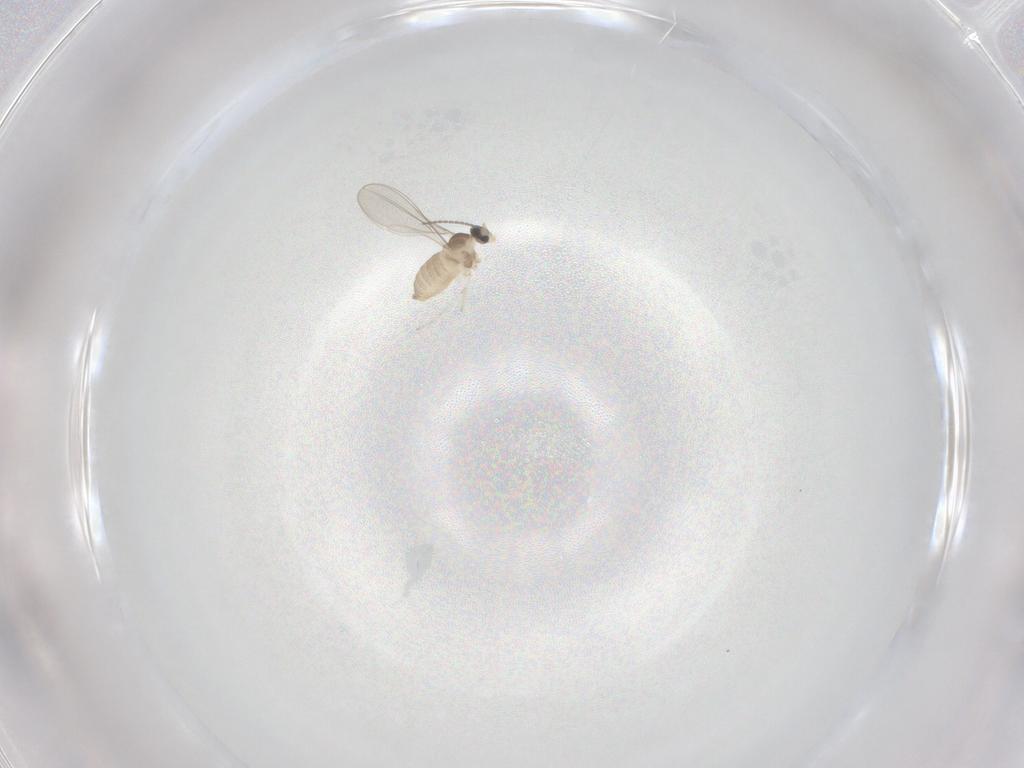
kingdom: Animalia
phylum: Arthropoda
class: Insecta
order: Diptera
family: Cecidomyiidae
